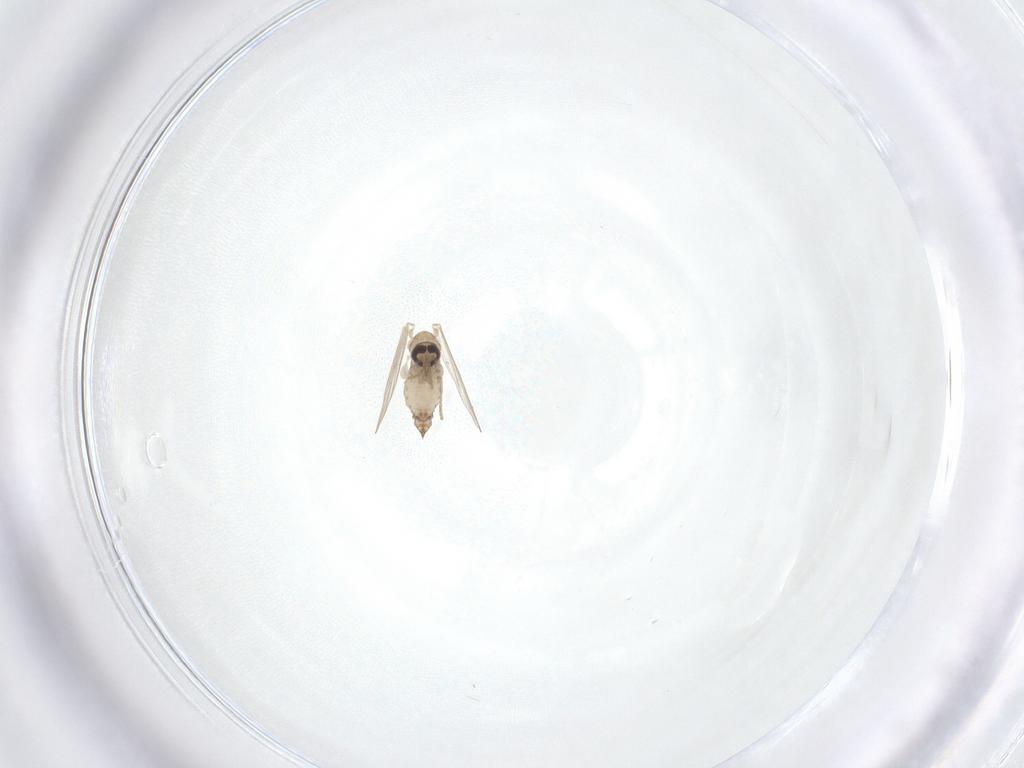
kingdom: Animalia
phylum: Arthropoda
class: Insecta
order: Diptera
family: Psychodidae
